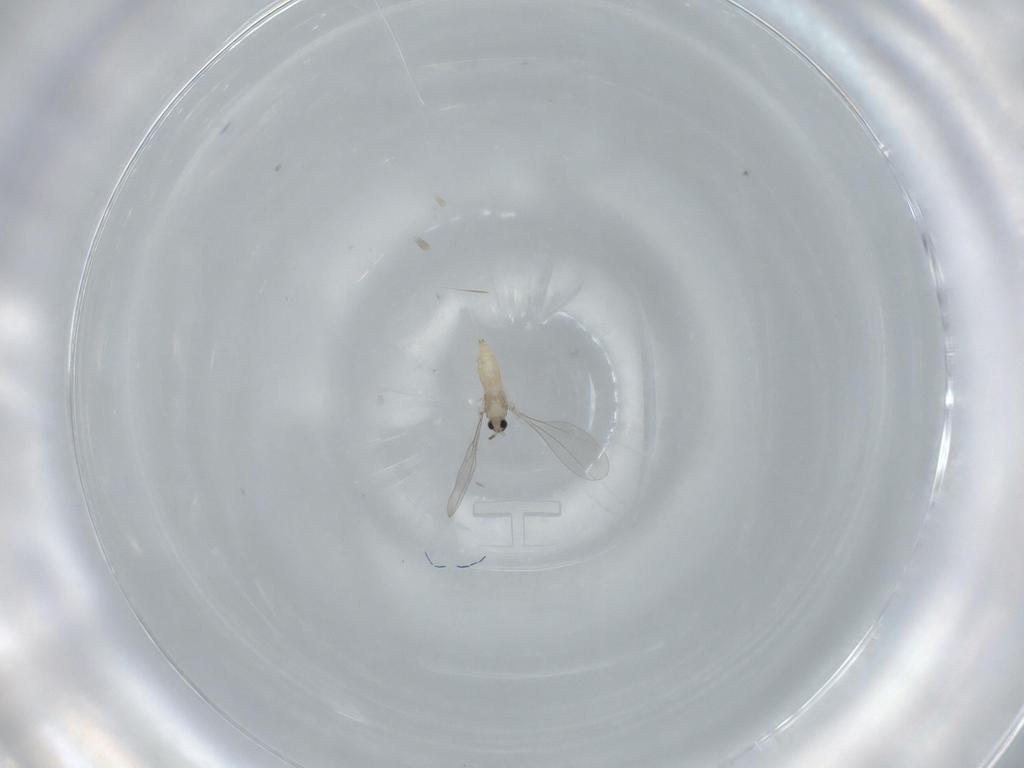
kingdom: Animalia
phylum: Arthropoda
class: Insecta
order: Diptera
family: Cecidomyiidae
